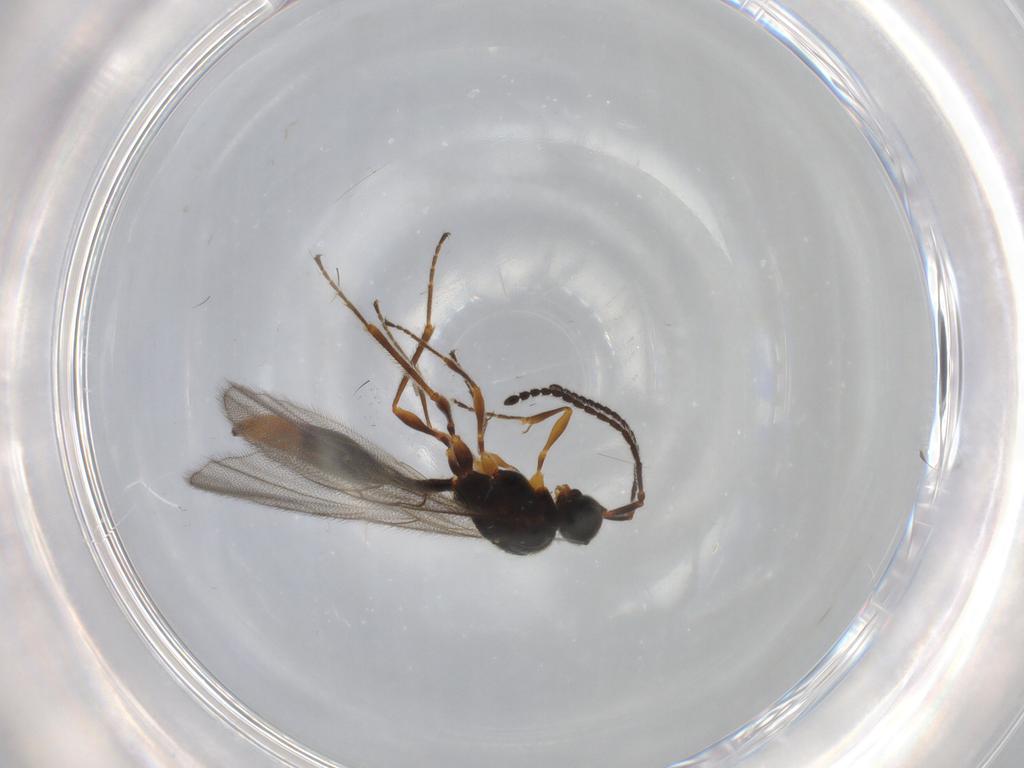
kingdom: Animalia
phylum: Arthropoda
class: Insecta
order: Hymenoptera
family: Diapriidae
